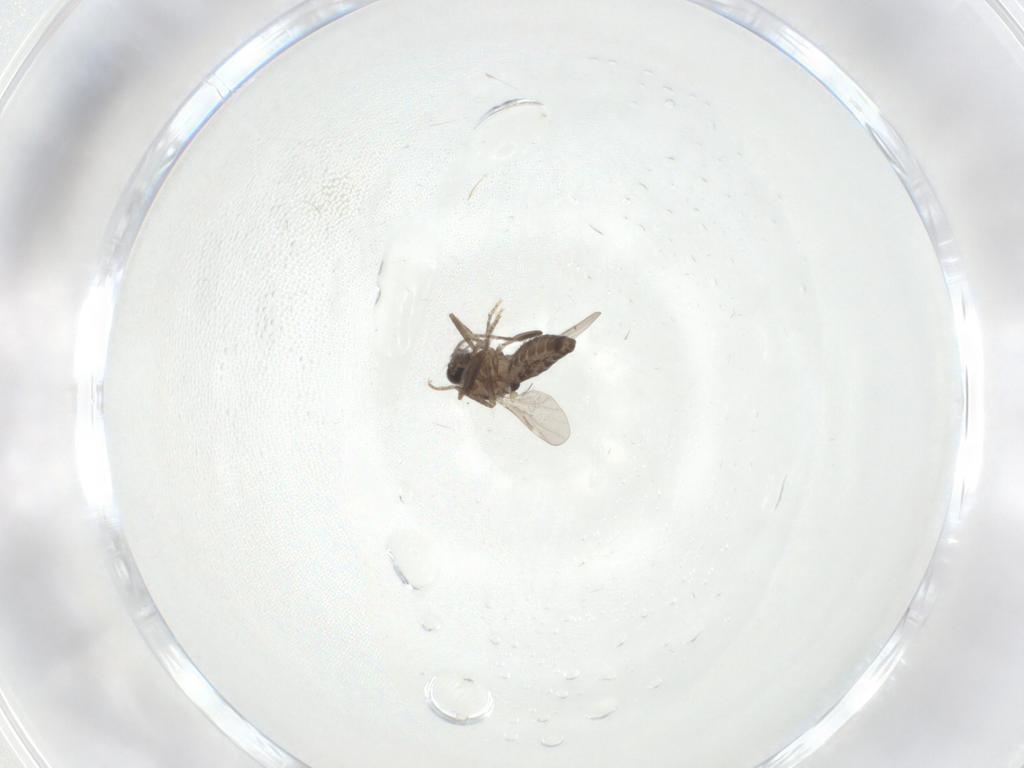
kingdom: Animalia
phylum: Arthropoda
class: Insecta
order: Diptera
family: Ceratopogonidae
